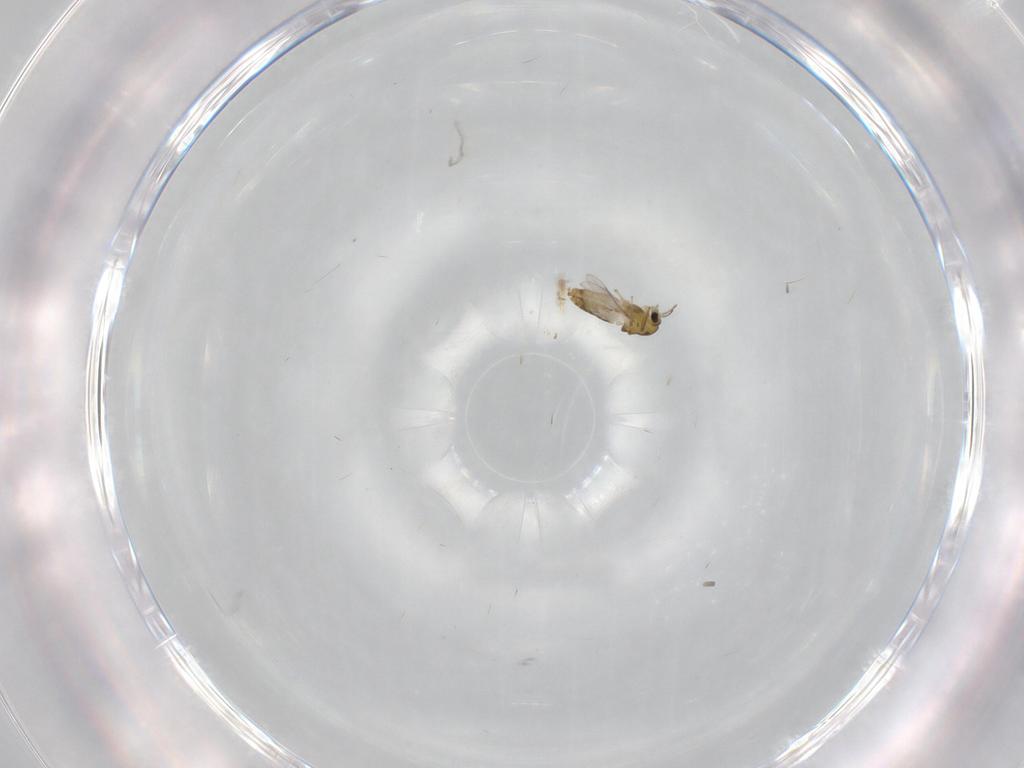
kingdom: Animalia
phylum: Arthropoda
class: Insecta
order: Diptera
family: Chironomidae
